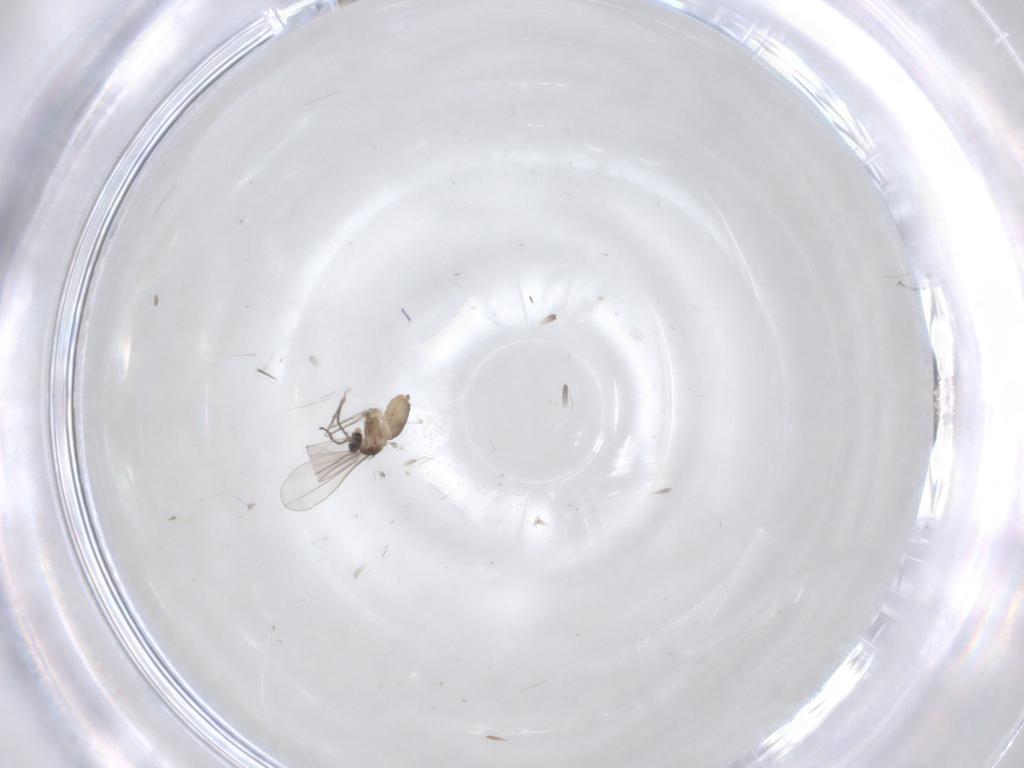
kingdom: Animalia
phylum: Arthropoda
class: Insecta
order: Diptera
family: Cecidomyiidae
